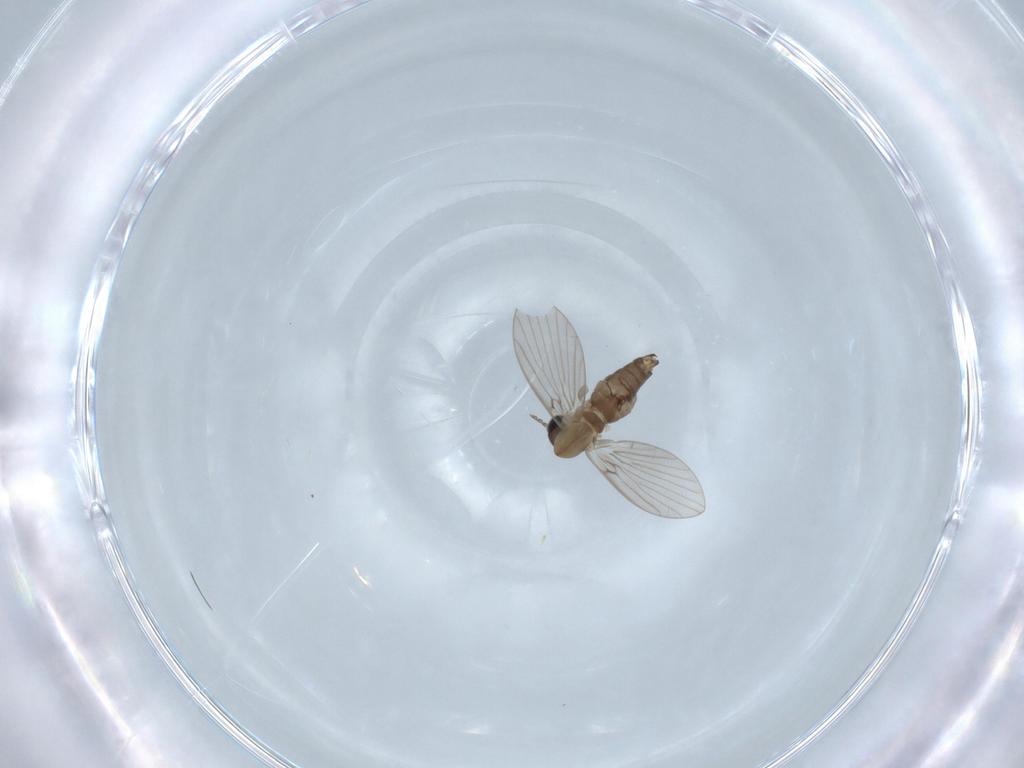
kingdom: Animalia
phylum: Arthropoda
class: Insecta
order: Diptera
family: Psychodidae
